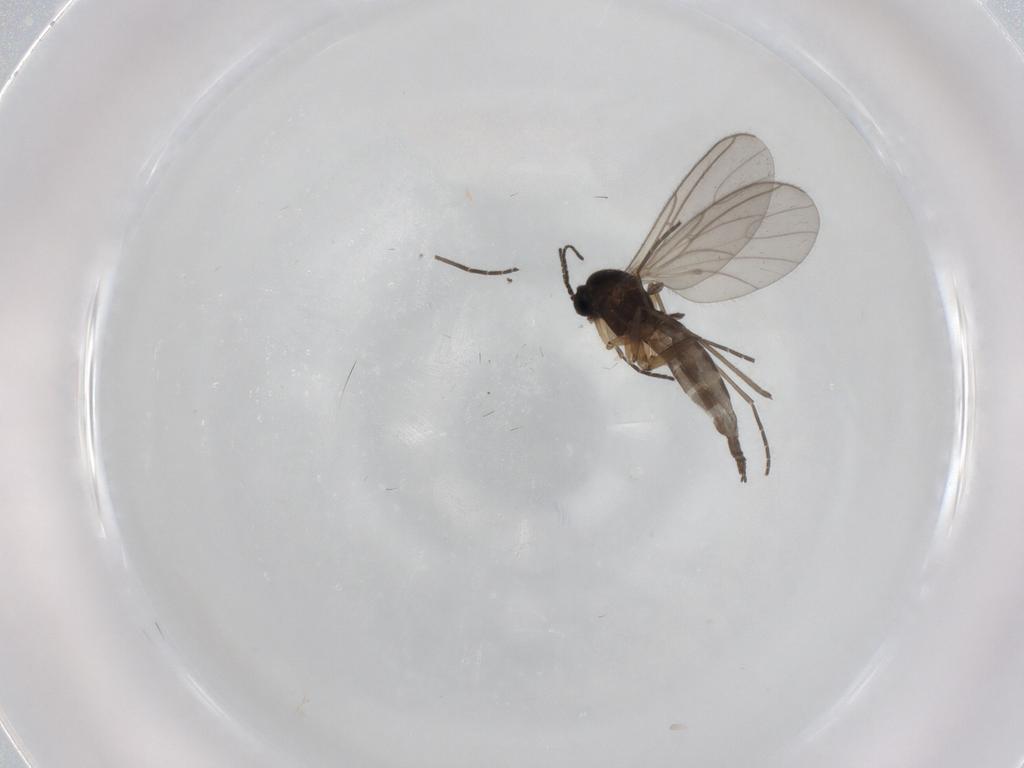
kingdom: Animalia
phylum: Arthropoda
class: Insecta
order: Diptera
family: Sciaridae
